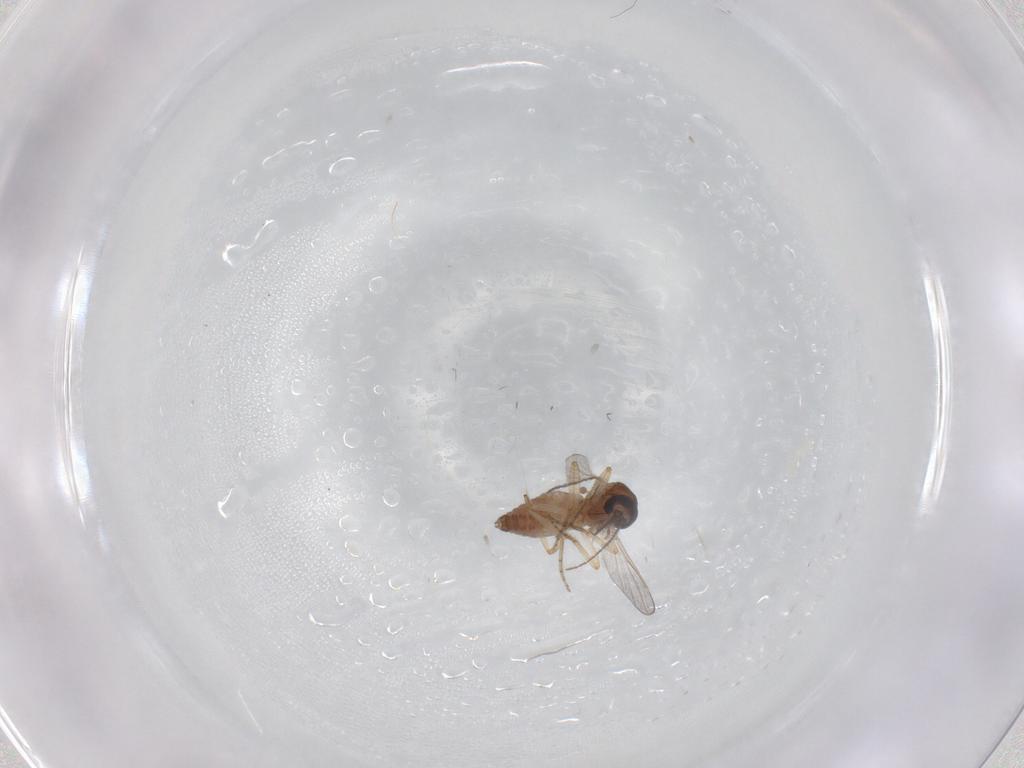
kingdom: Animalia
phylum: Arthropoda
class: Insecta
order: Diptera
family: Ceratopogonidae
